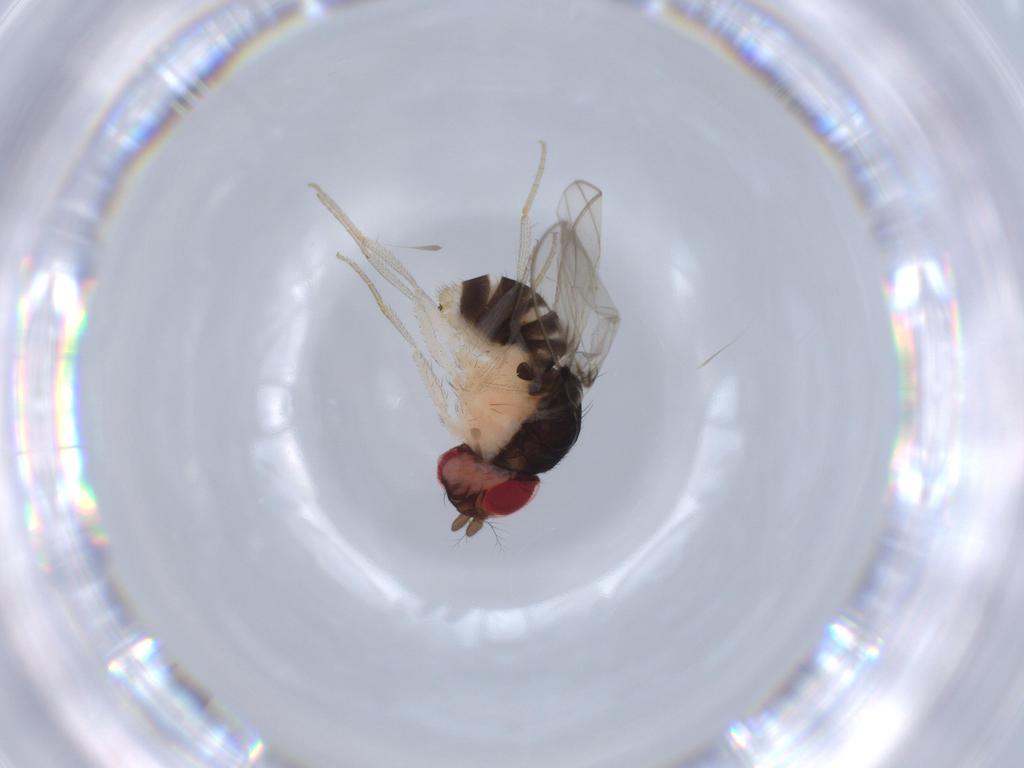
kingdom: Animalia
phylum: Arthropoda
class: Insecta
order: Diptera
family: Drosophilidae
